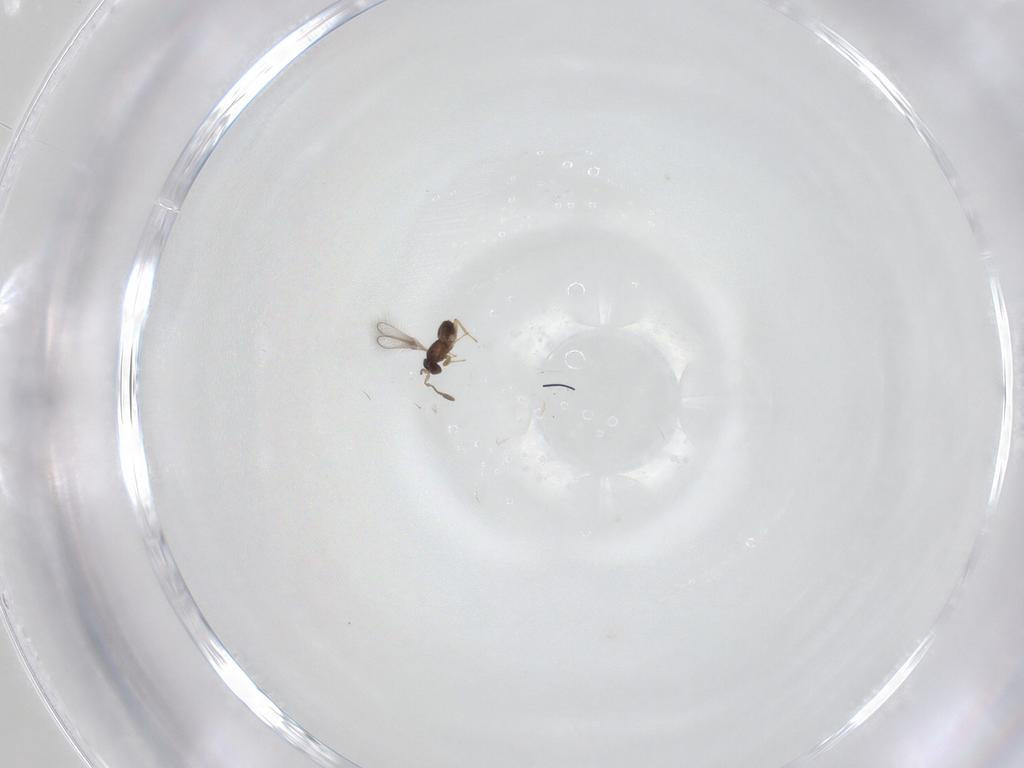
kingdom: Animalia
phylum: Arthropoda
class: Insecta
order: Hymenoptera
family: Mymaridae
